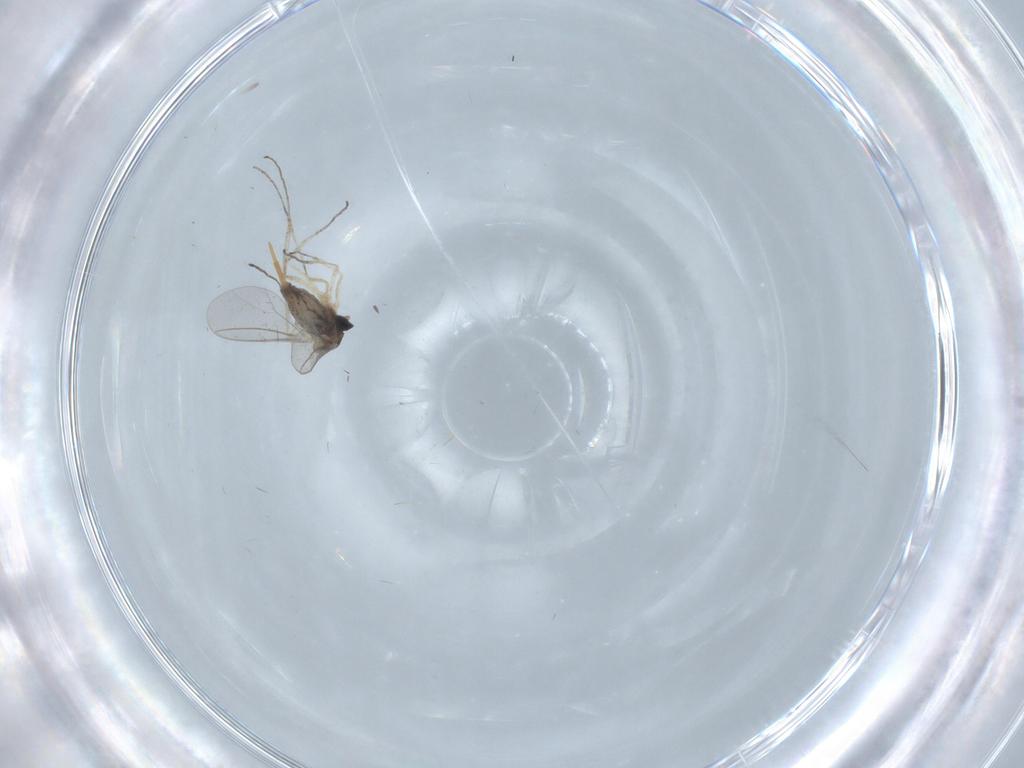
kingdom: Animalia
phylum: Arthropoda
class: Insecta
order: Diptera
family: Cecidomyiidae
